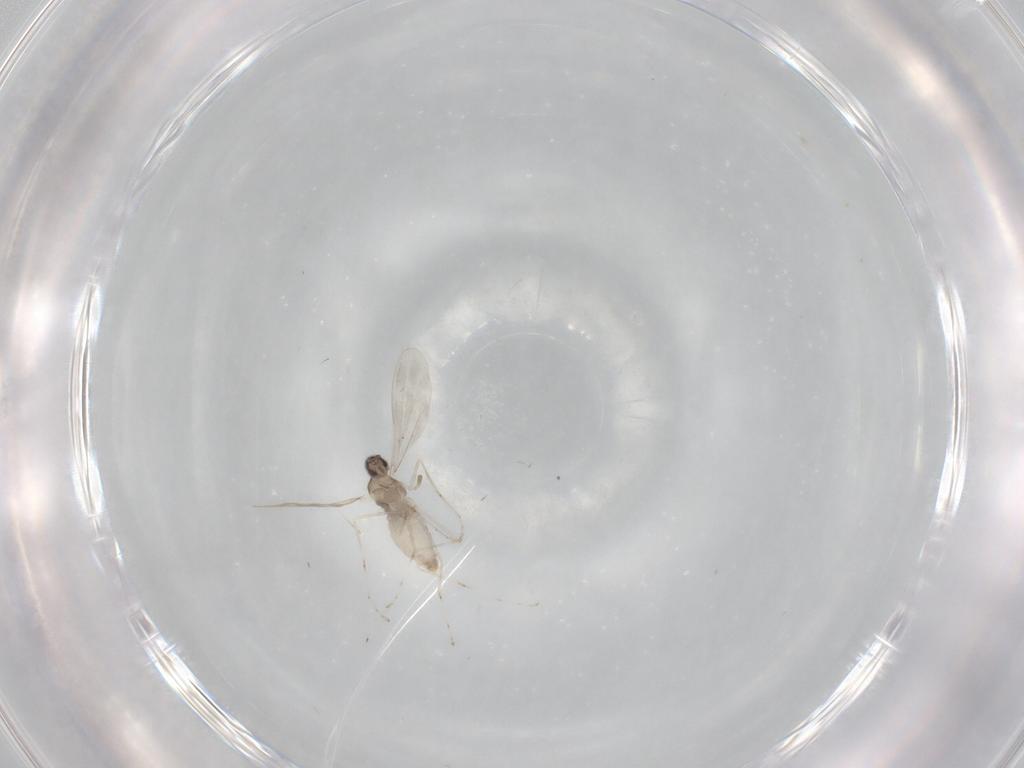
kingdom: Animalia
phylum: Arthropoda
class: Insecta
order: Diptera
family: Cecidomyiidae
